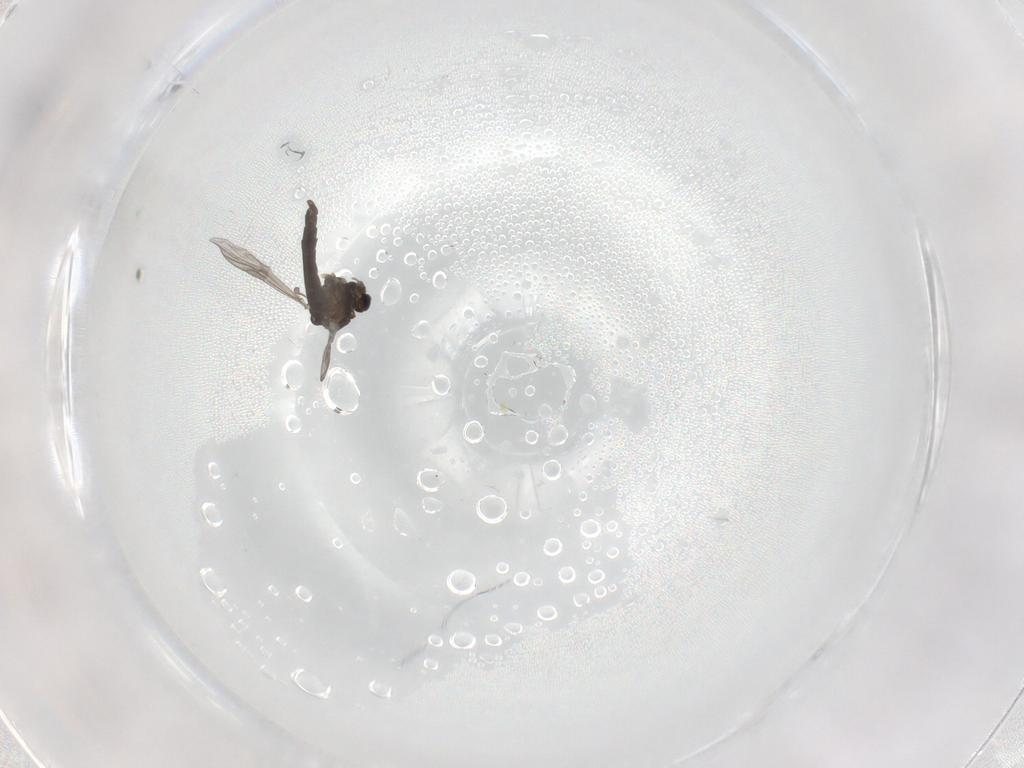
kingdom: Animalia
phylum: Arthropoda
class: Insecta
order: Diptera
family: Chironomidae
